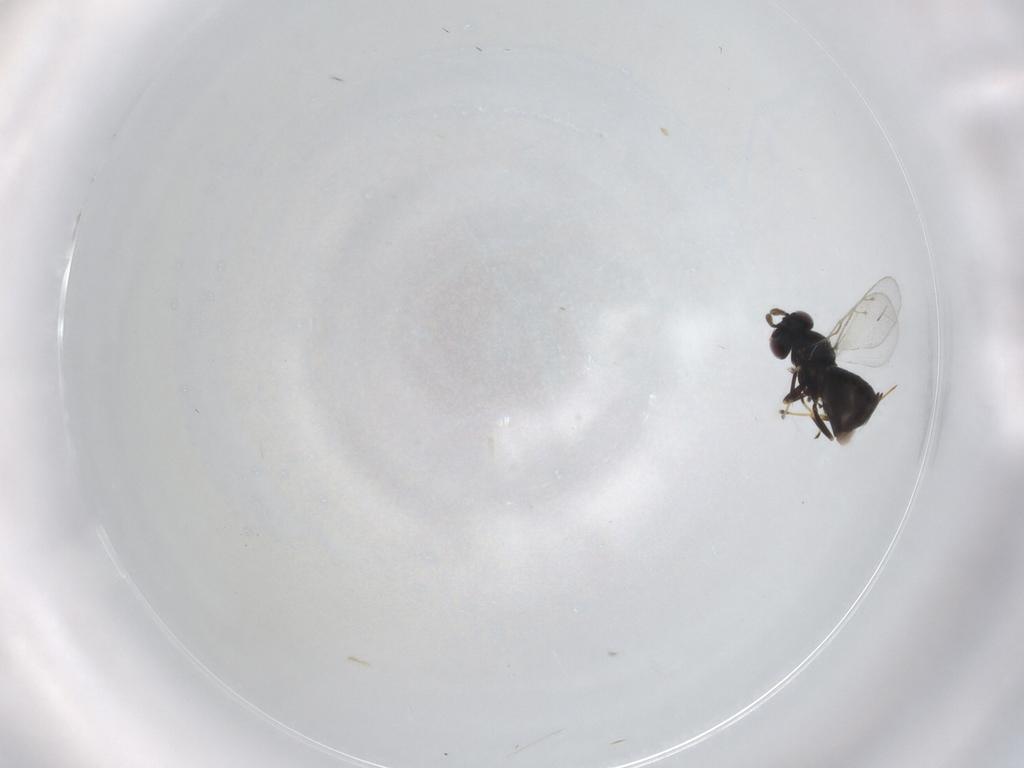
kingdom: Animalia
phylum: Arthropoda
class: Insecta
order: Hymenoptera
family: Pteromalidae
